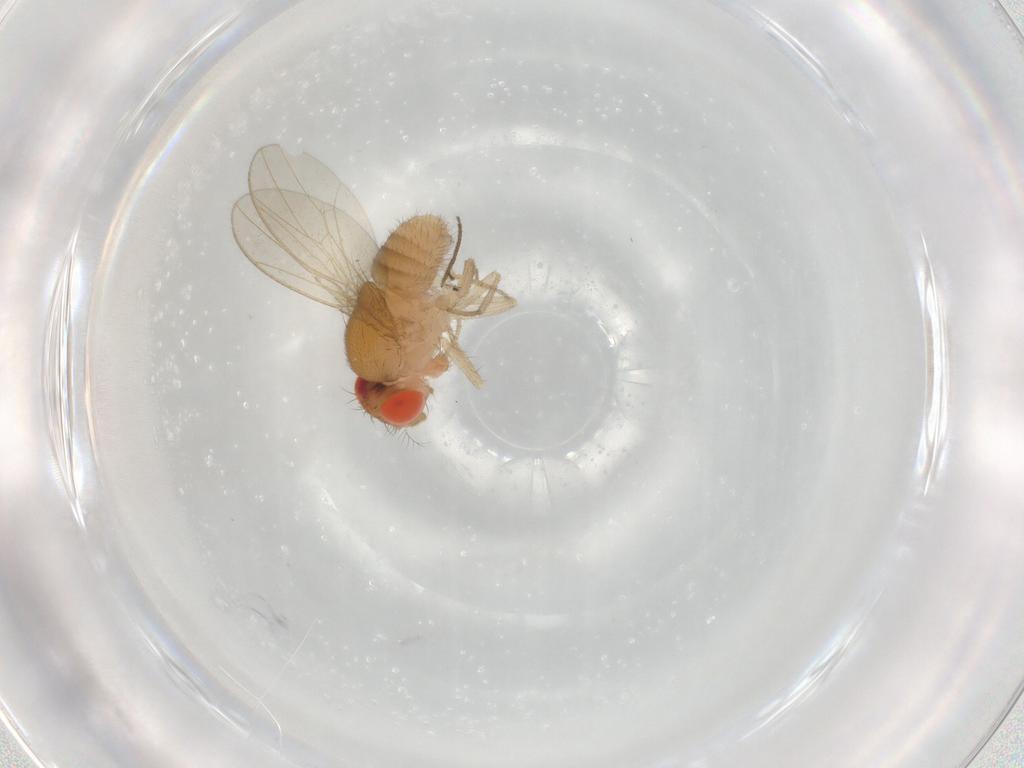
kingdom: Animalia
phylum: Arthropoda
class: Insecta
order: Diptera
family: Drosophilidae
